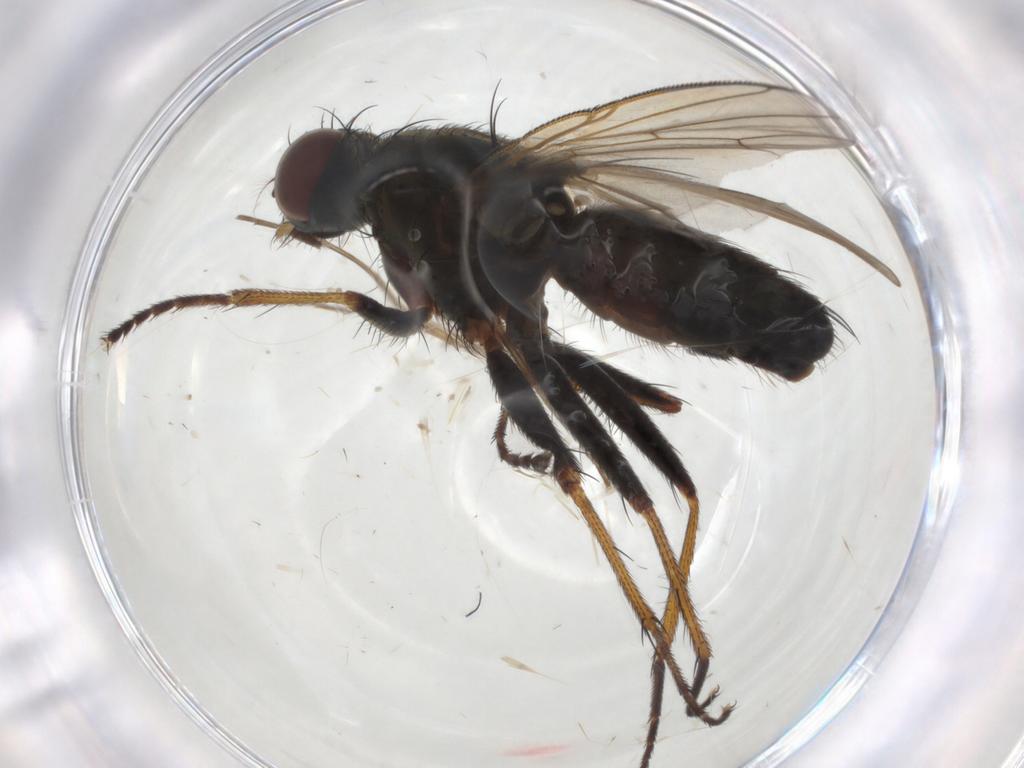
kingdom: Animalia
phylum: Arthropoda
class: Insecta
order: Diptera
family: Muscidae
